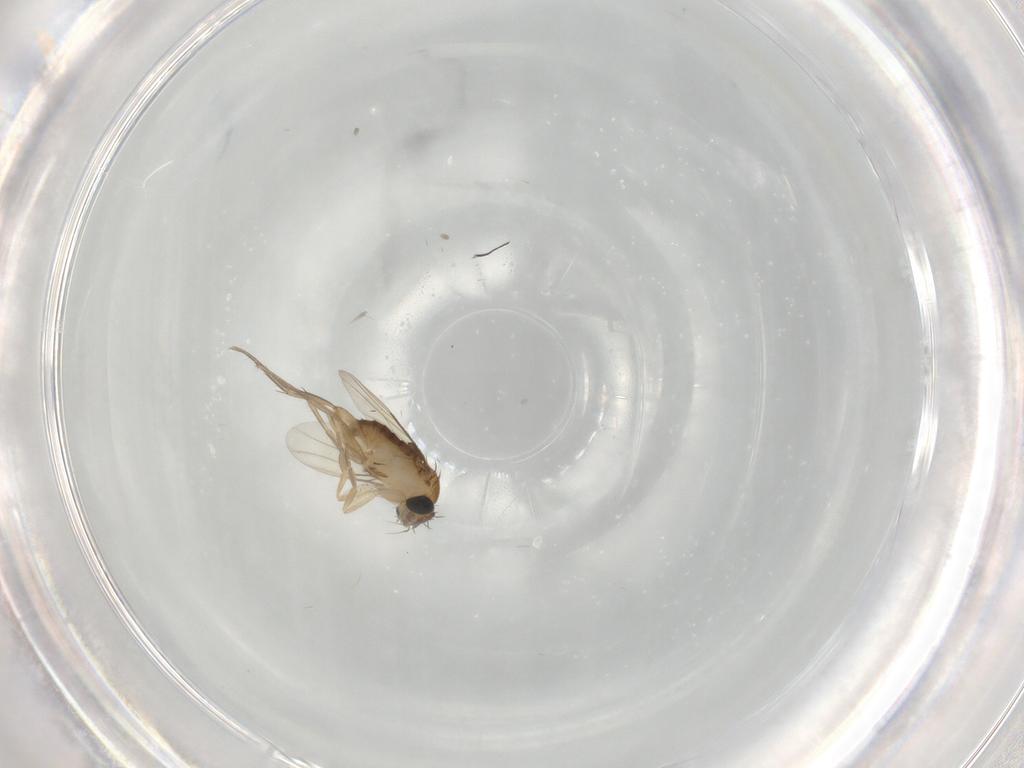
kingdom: Animalia
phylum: Arthropoda
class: Insecta
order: Diptera
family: Phoridae
